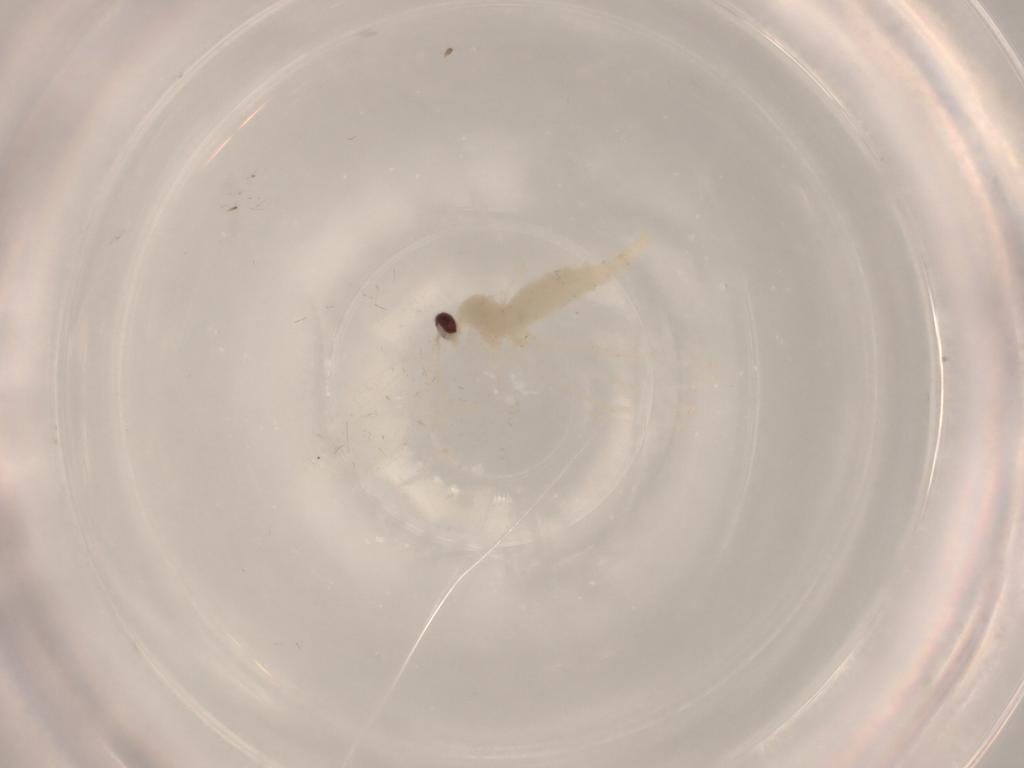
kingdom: Animalia
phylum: Arthropoda
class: Insecta
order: Diptera
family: Cecidomyiidae
